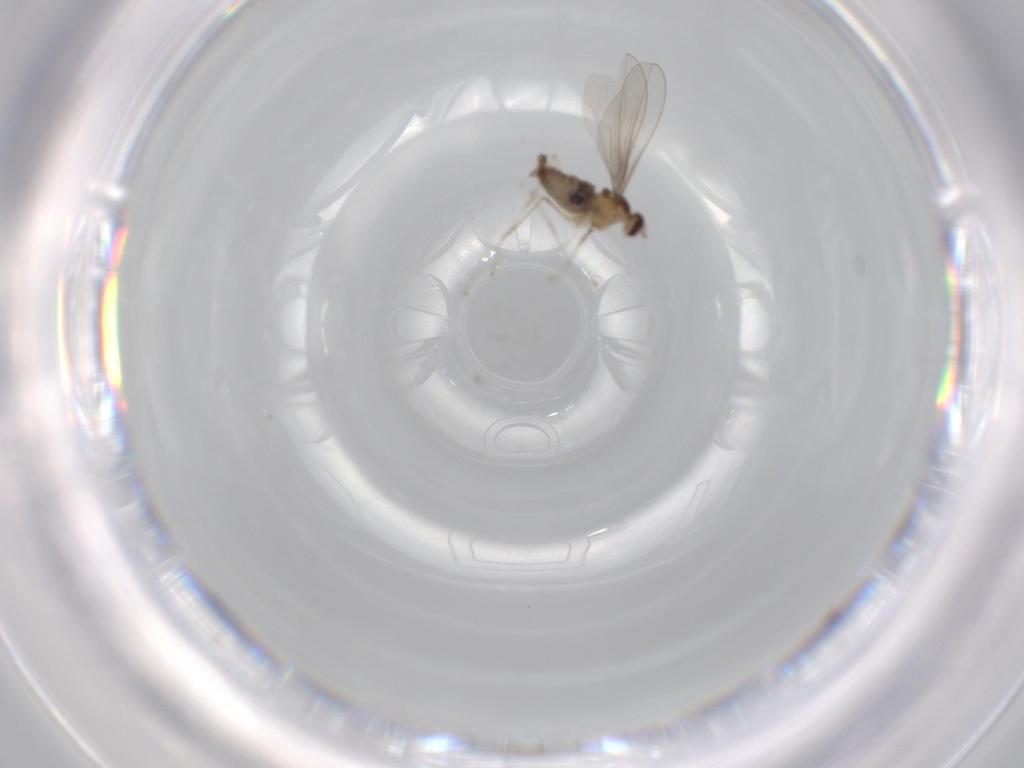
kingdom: Animalia
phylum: Arthropoda
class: Insecta
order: Diptera
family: Cecidomyiidae
